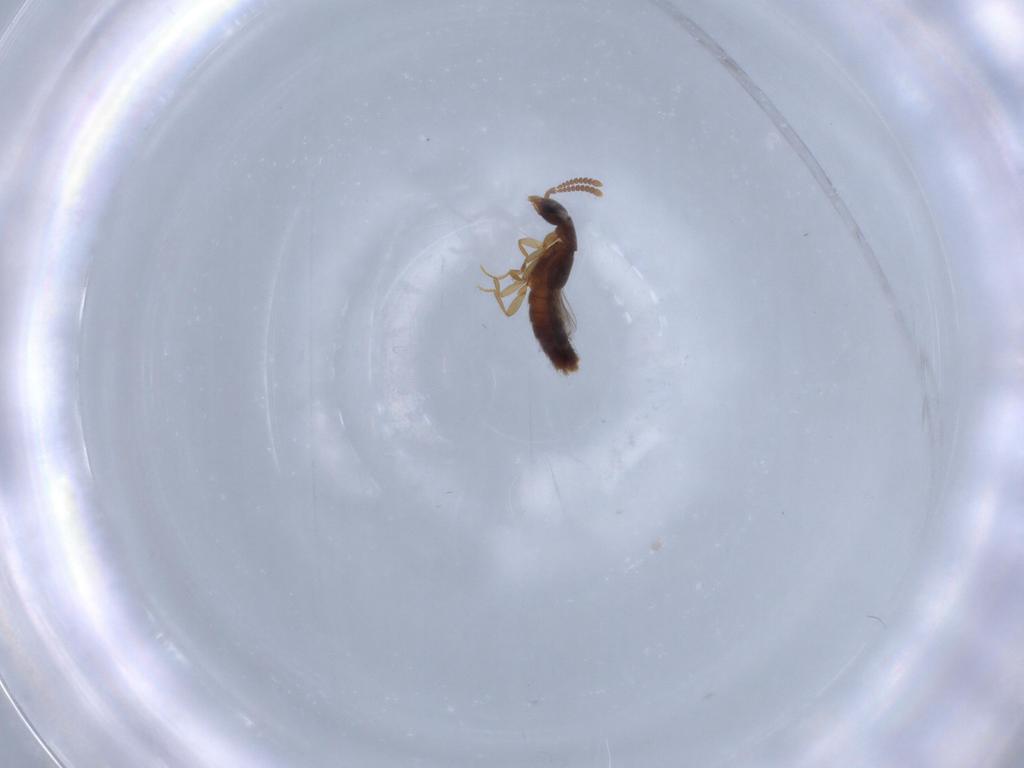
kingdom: Animalia
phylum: Arthropoda
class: Insecta
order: Coleoptera
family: Staphylinidae
